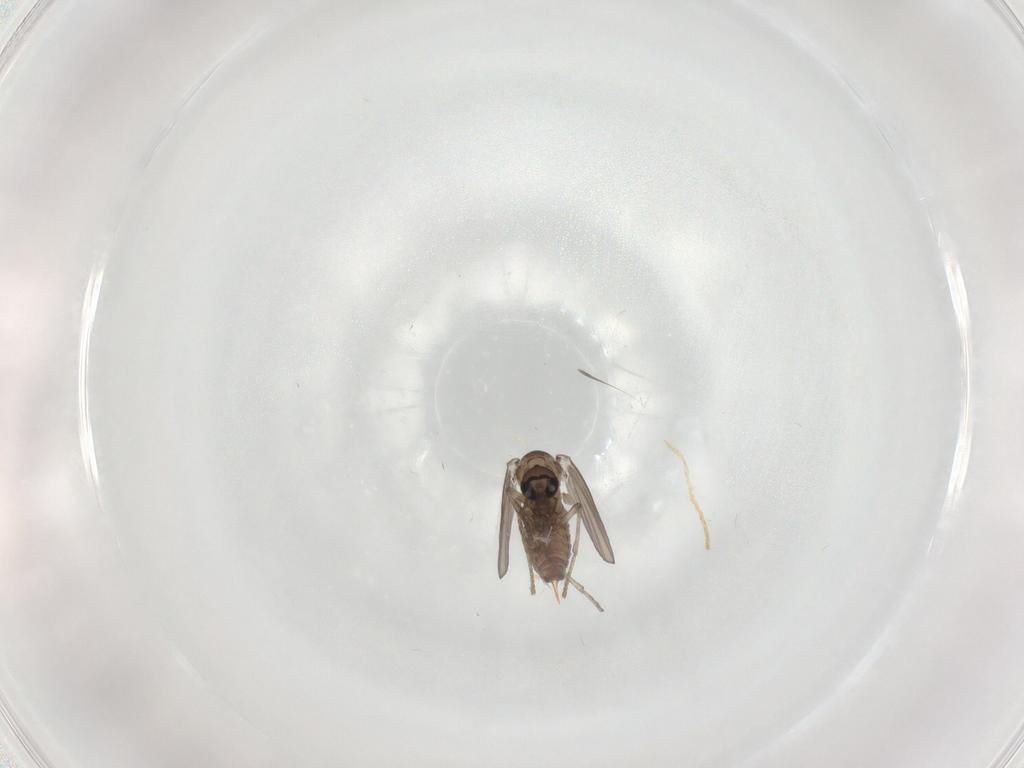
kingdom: Animalia
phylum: Arthropoda
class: Insecta
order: Diptera
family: Psychodidae
